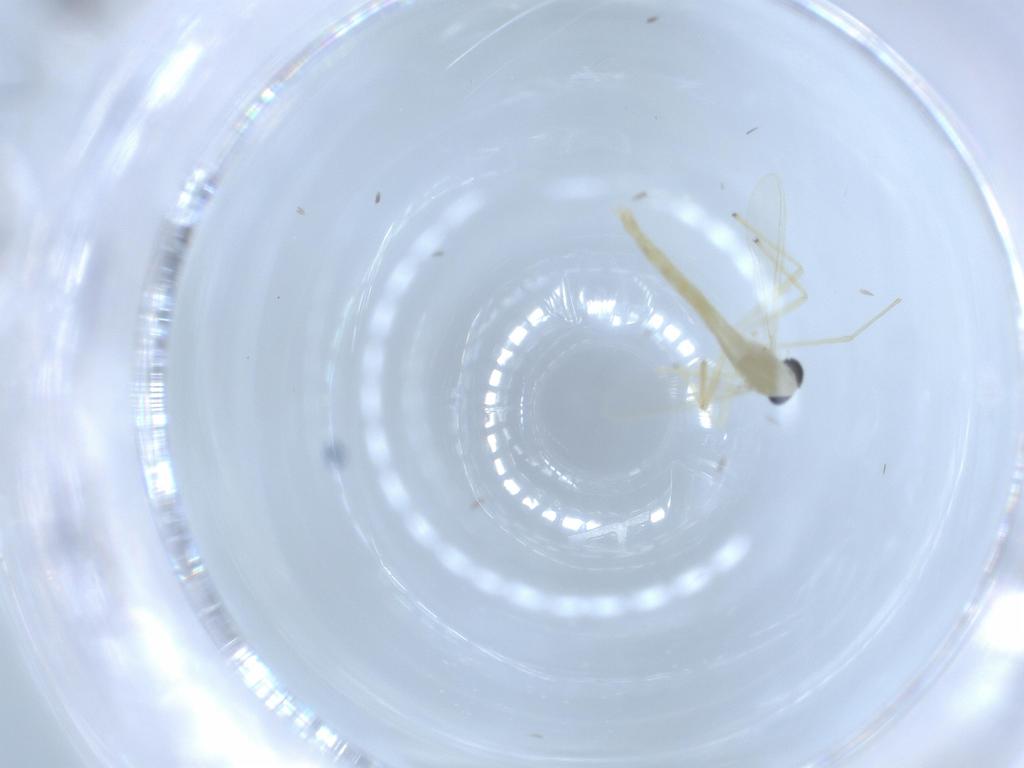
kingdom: Animalia
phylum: Arthropoda
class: Insecta
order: Diptera
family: Chironomidae
